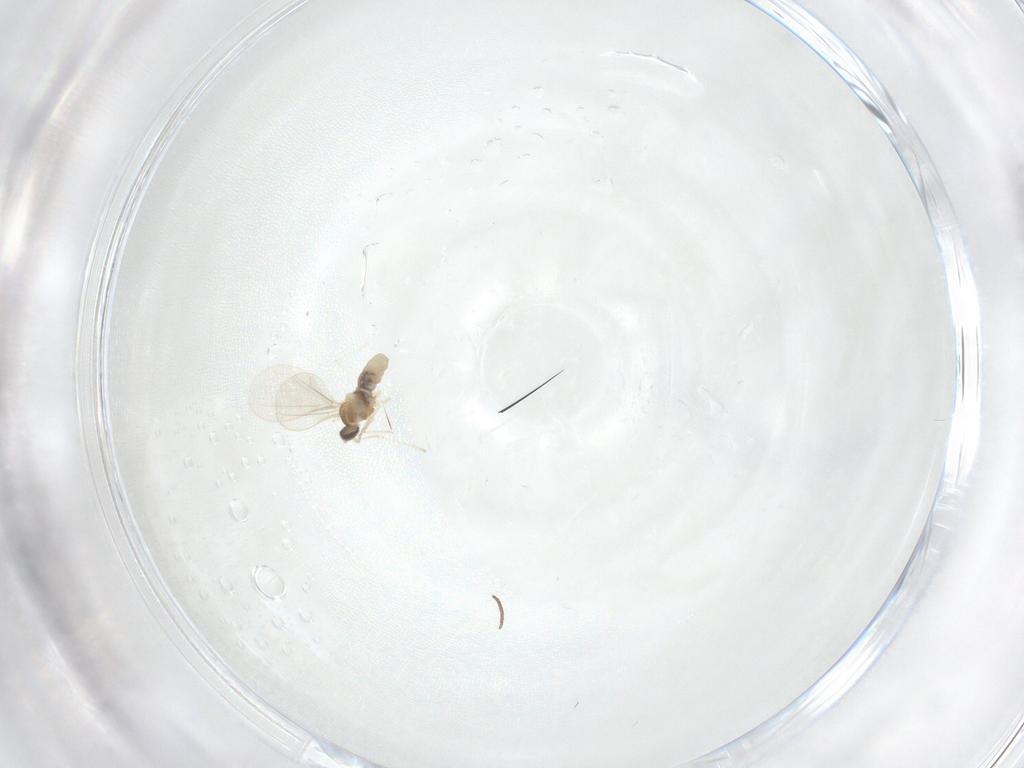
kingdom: Animalia
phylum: Arthropoda
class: Insecta
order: Diptera
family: Cecidomyiidae
